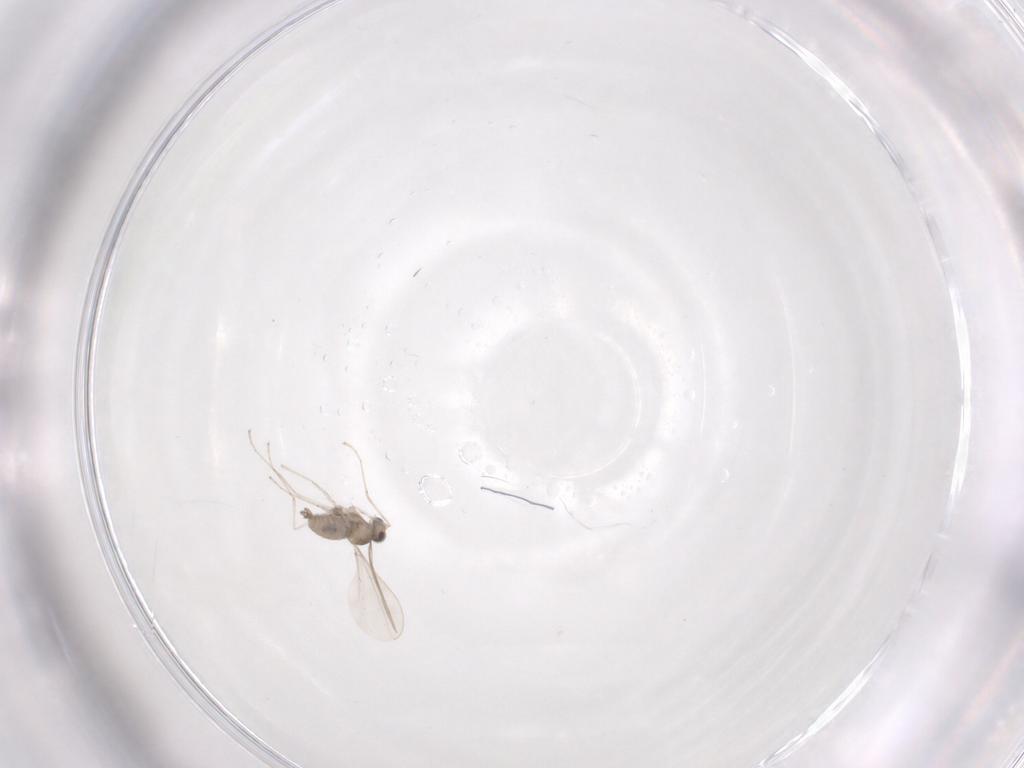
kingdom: Animalia
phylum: Arthropoda
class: Insecta
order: Diptera
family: Cecidomyiidae
